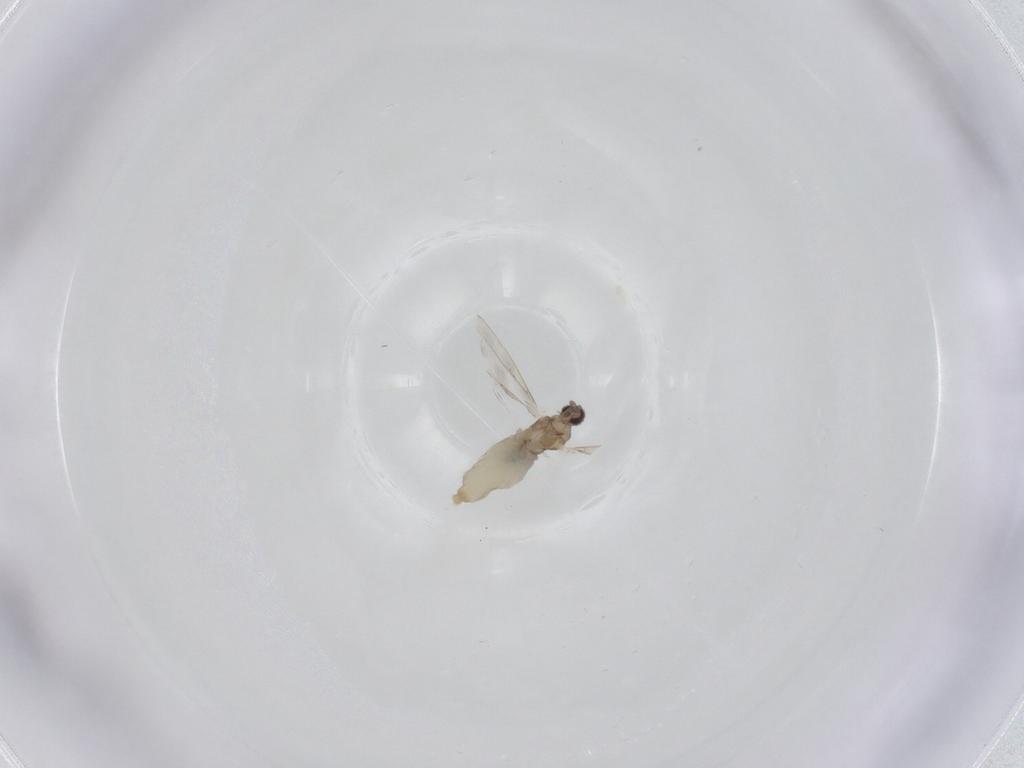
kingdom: Animalia
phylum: Arthropoda
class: Insecta
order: Diptera
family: Cecidomyiidae
